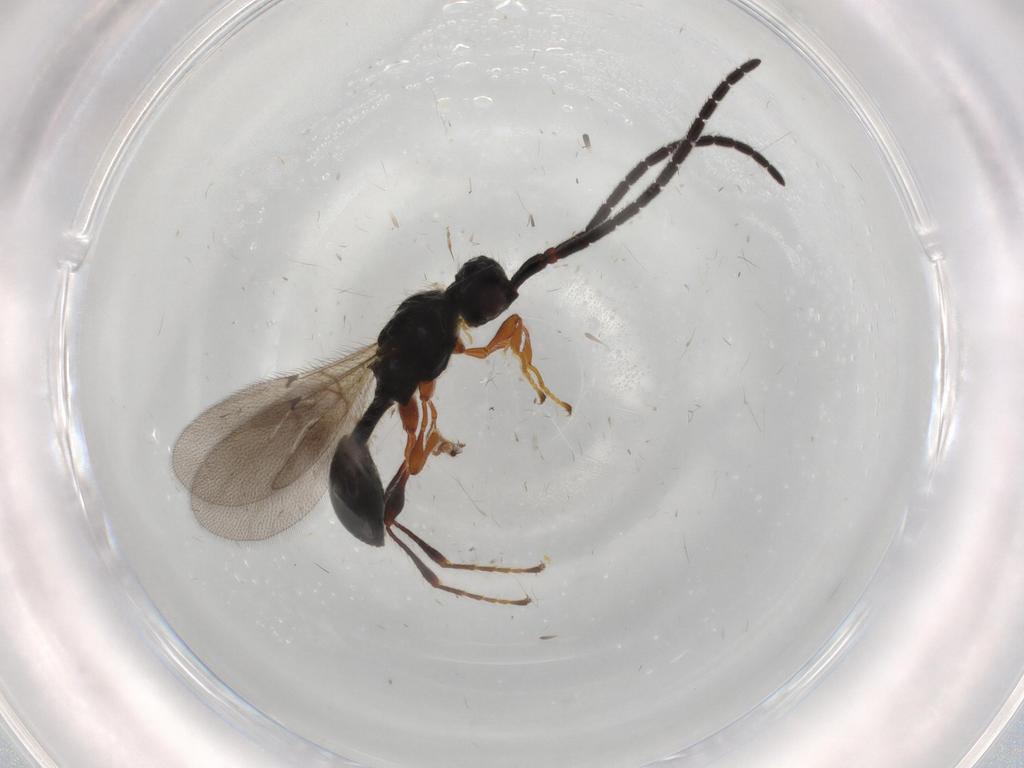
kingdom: Animalia
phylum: Arthropoda
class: Insecta
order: Hymenoptera
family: Diapriidae
